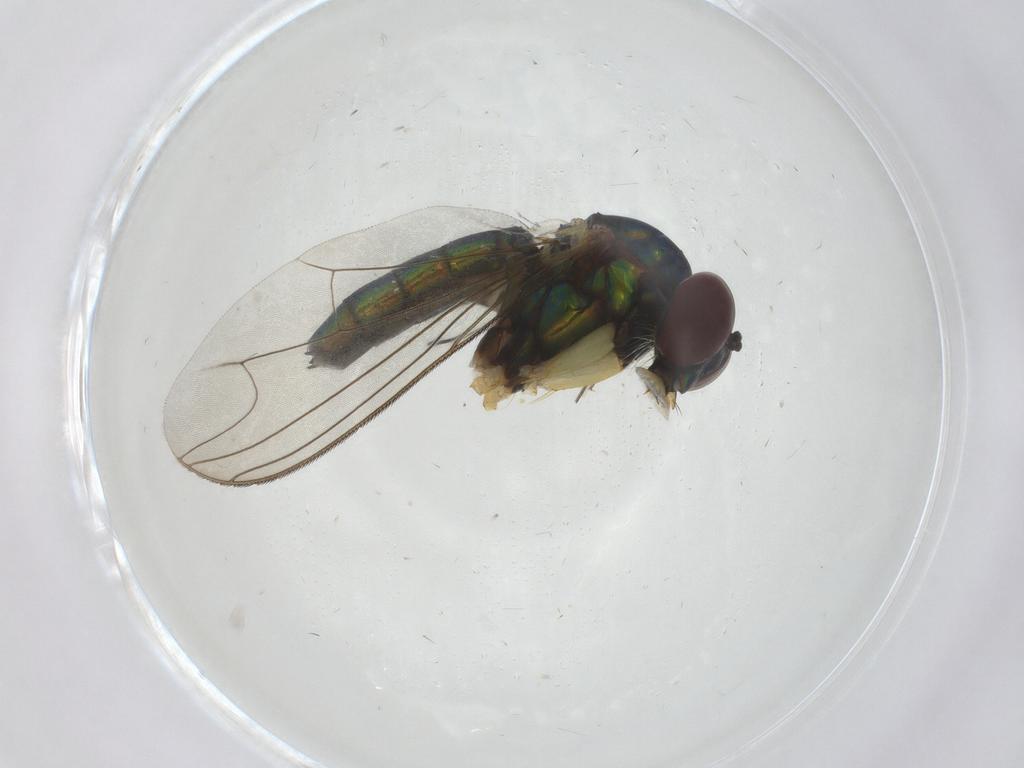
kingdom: Animalia
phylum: Arthropoda
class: Insecta
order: Diptera
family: Dolichopodidae
